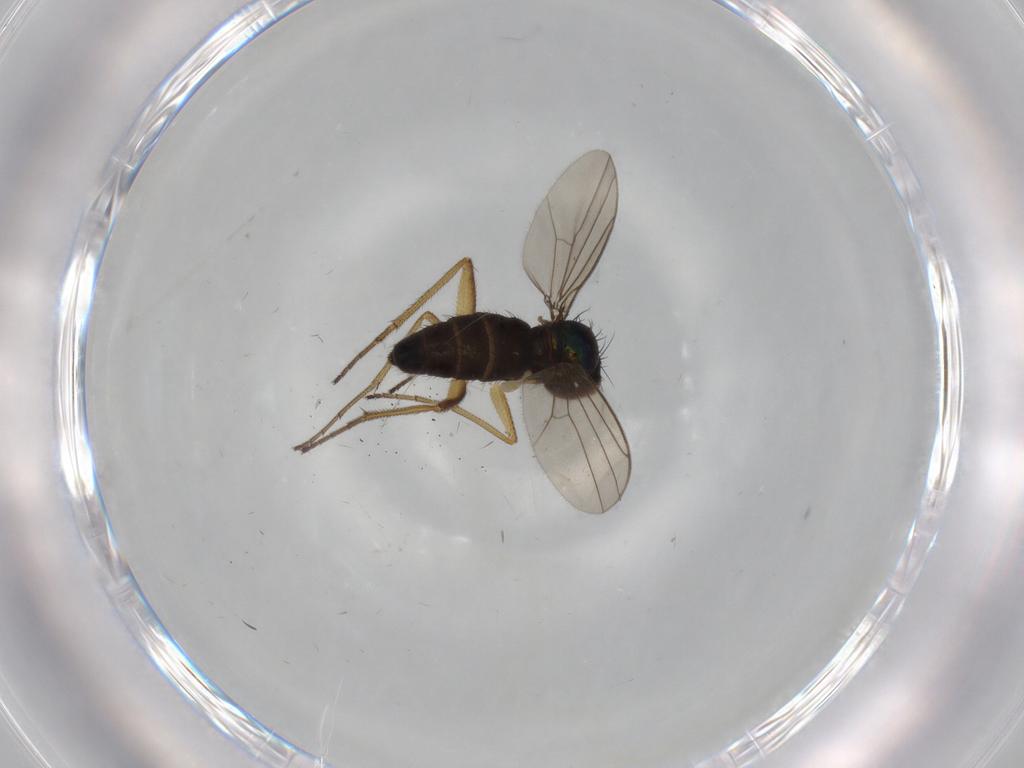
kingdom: Animalia
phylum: Arthropoda
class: Insecta
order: Diptera
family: Dolichopodidae
